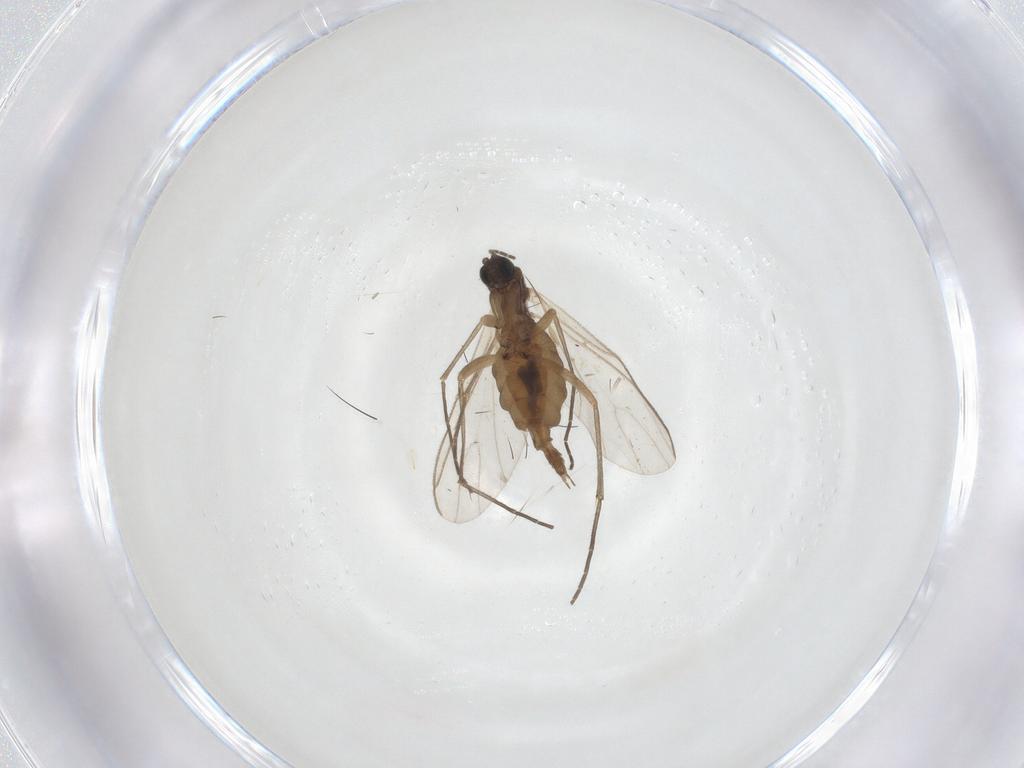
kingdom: Animalia
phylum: Arthropoda
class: Insecta
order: Diptera
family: Sciaridae
